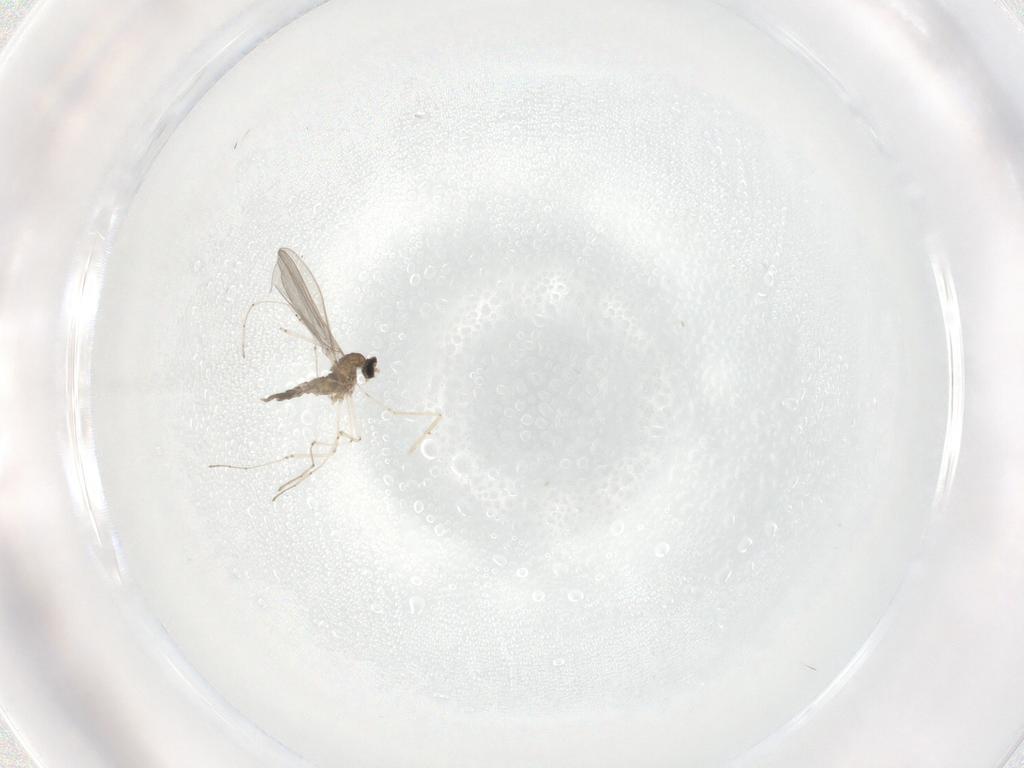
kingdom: Animalia
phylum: Arthropoda
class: Insecta
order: Diptera
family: Cecidomyiidae
